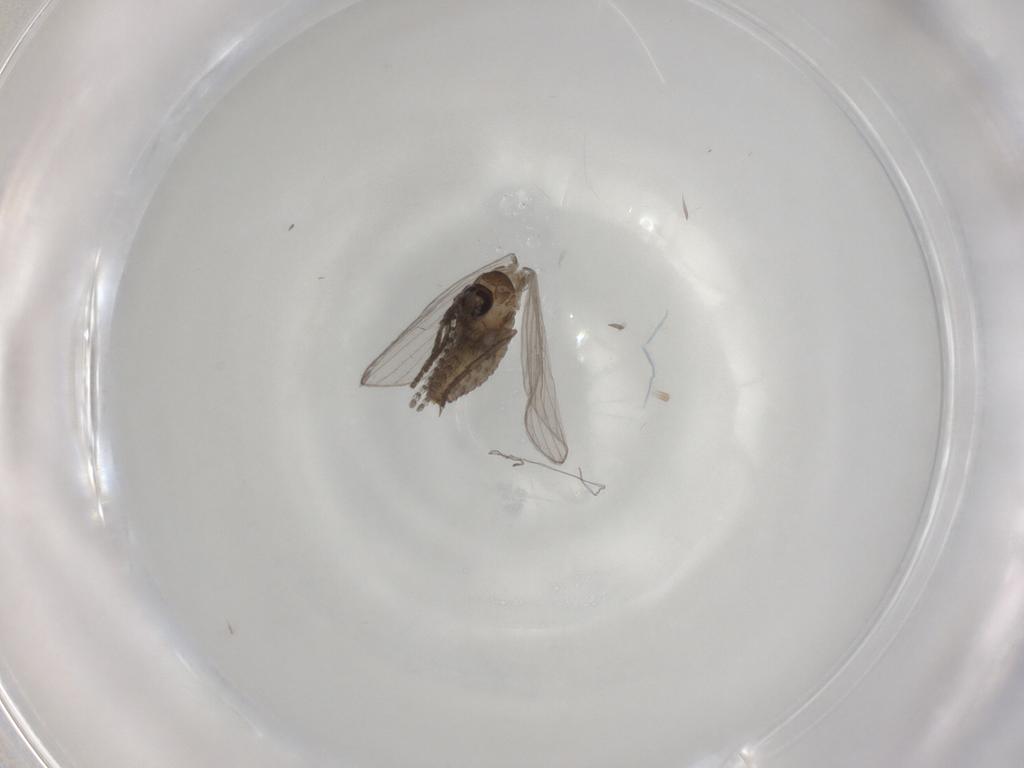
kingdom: Animalia
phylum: Arthropoda
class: Insecta
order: Diptera
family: Psychodidae
